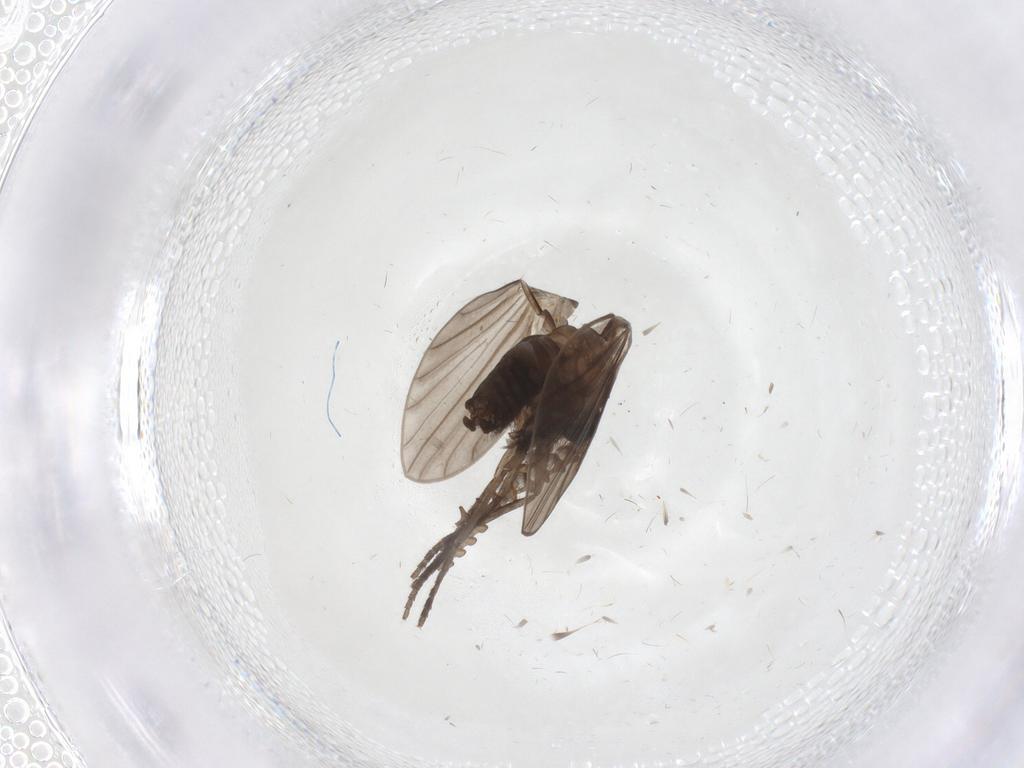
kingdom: Animalia
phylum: Arthropoda
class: Insecta
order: Diptera
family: Psychodidae
